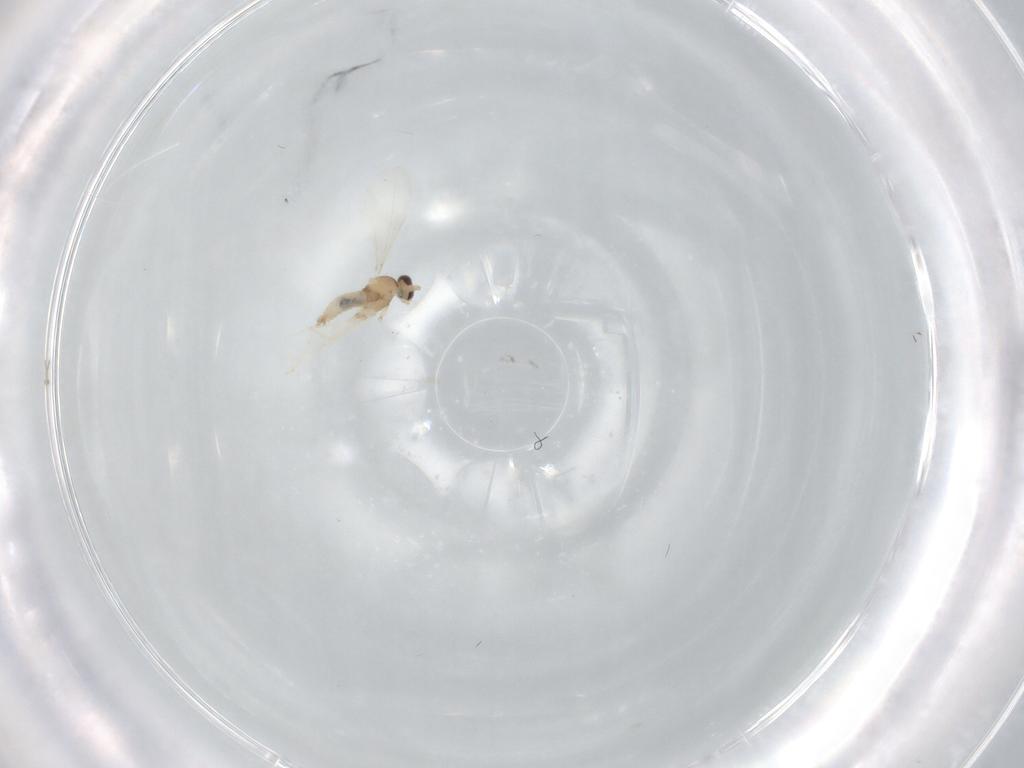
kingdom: Animalia
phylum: Arthropoda
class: Insecta
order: Diptera
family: Cecidomyiidae
